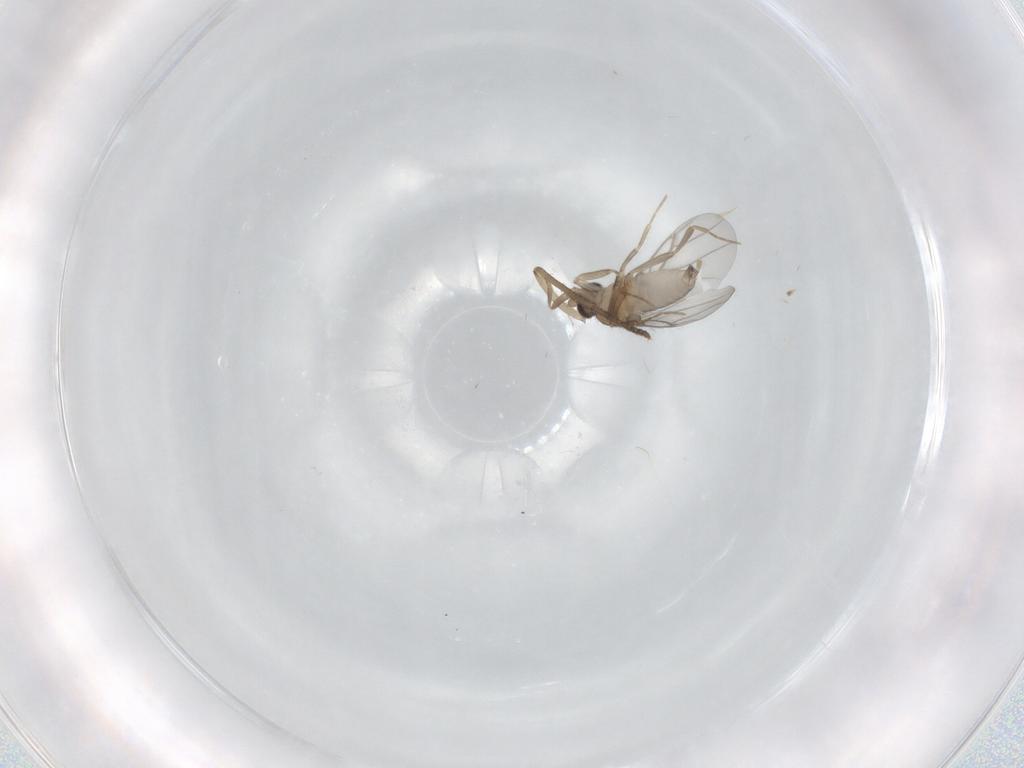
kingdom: Animalia
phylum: Arthropoda
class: Insecta
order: Diptera
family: Psychodidae
